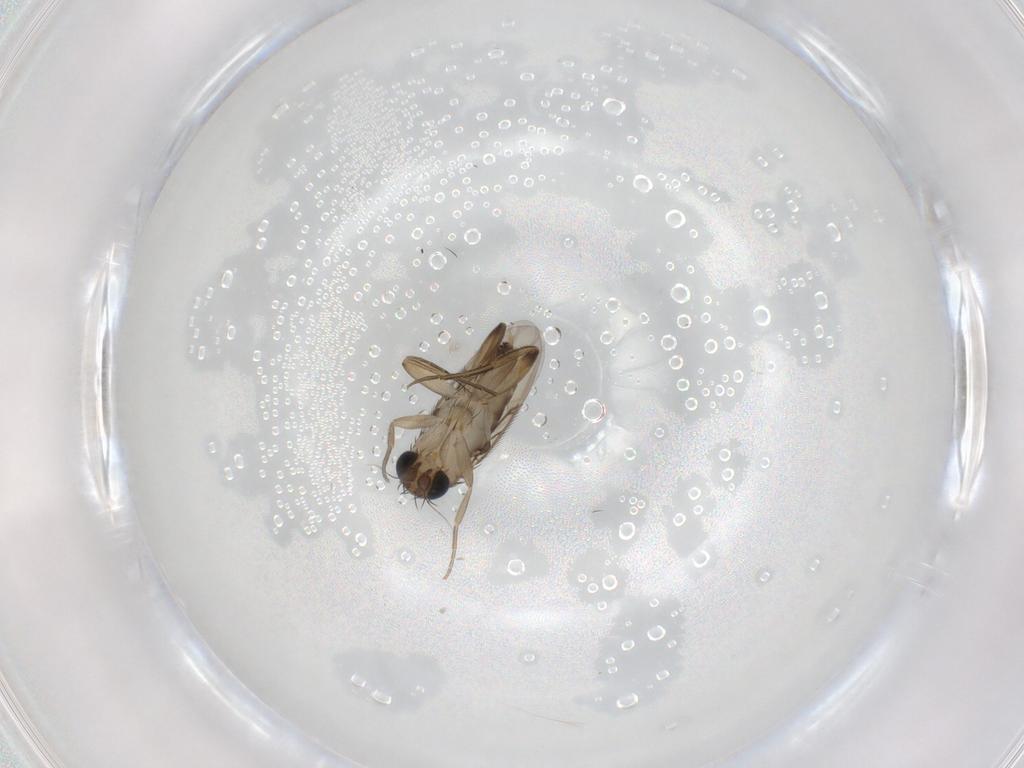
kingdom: Animalia
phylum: Arthropoda
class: Insecta
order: Diptera
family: Phoridae
